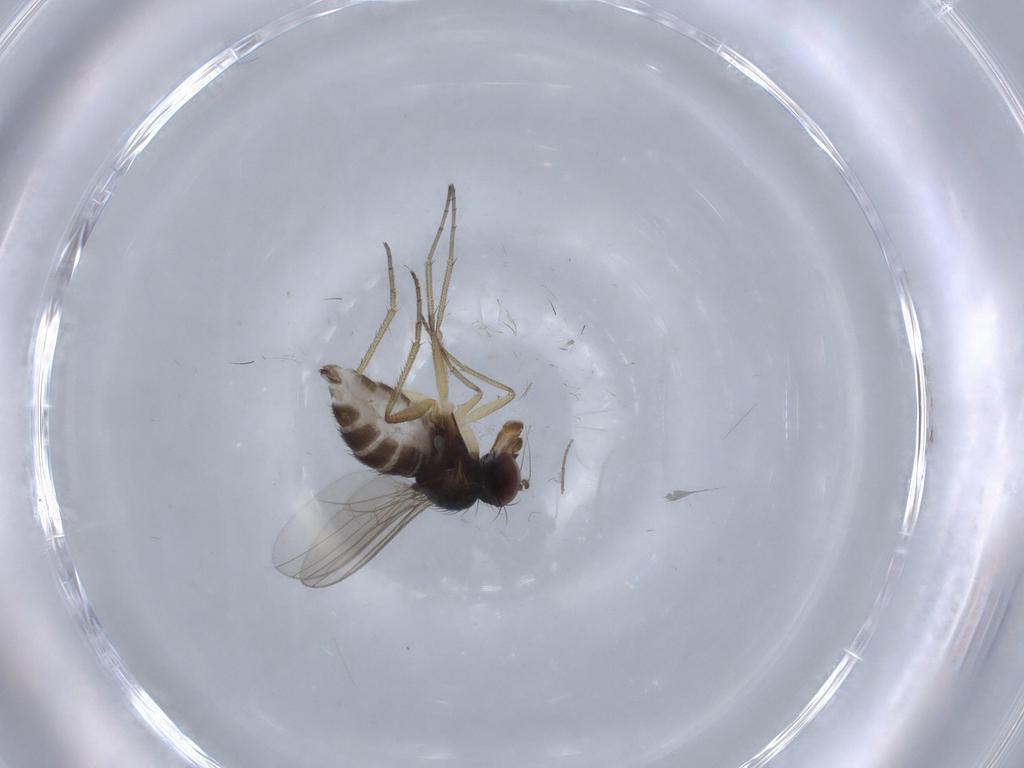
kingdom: Animalia
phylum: Arthropoda
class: Insecta
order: Diptera
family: Dolichopodidae
